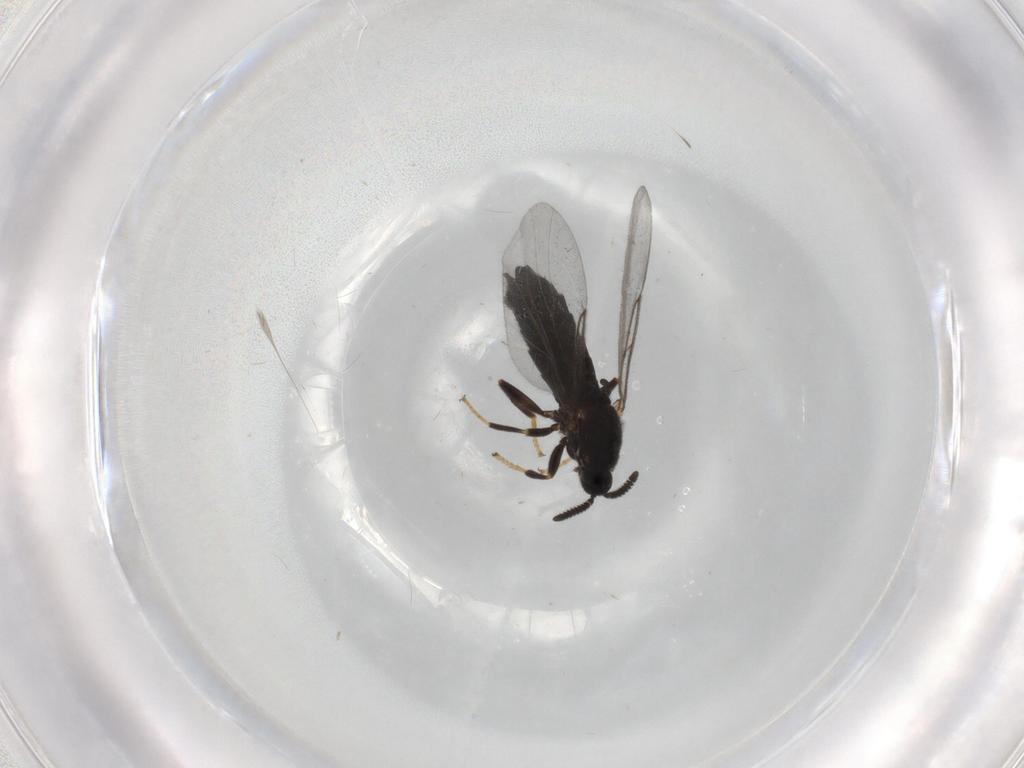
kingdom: Animalia
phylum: Arthropoda
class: Insecta
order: Diptera
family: Scatopsidae
